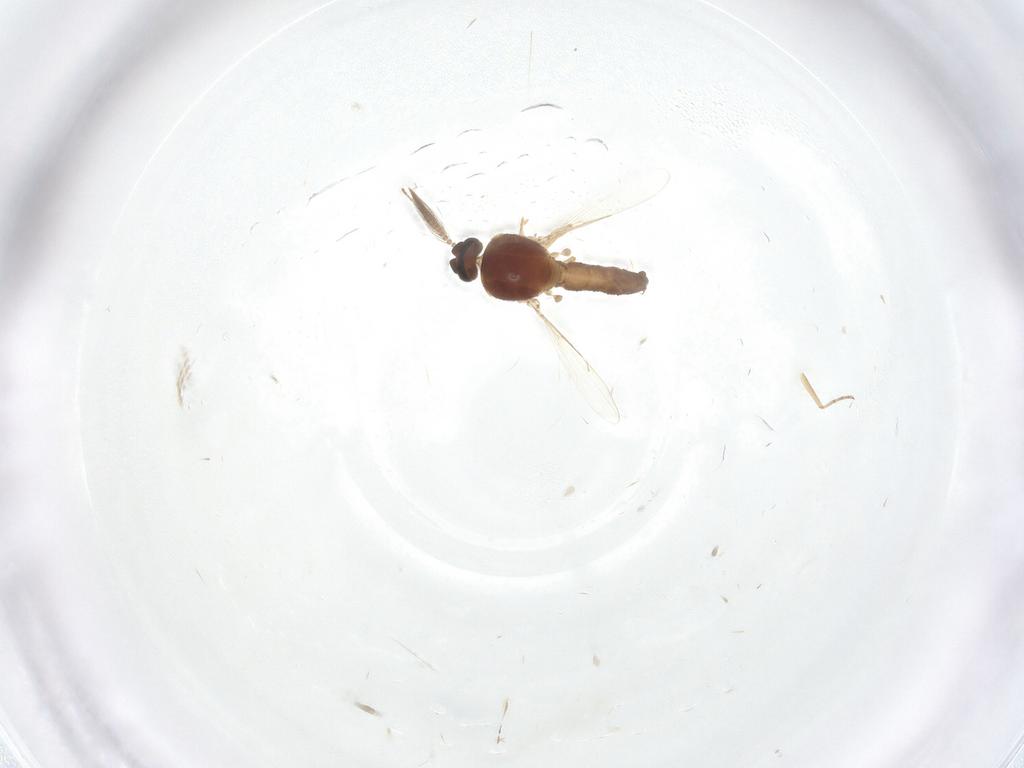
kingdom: Animalia
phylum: Arthropoda
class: Insecta
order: Diptera
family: Ceratopogonidae
